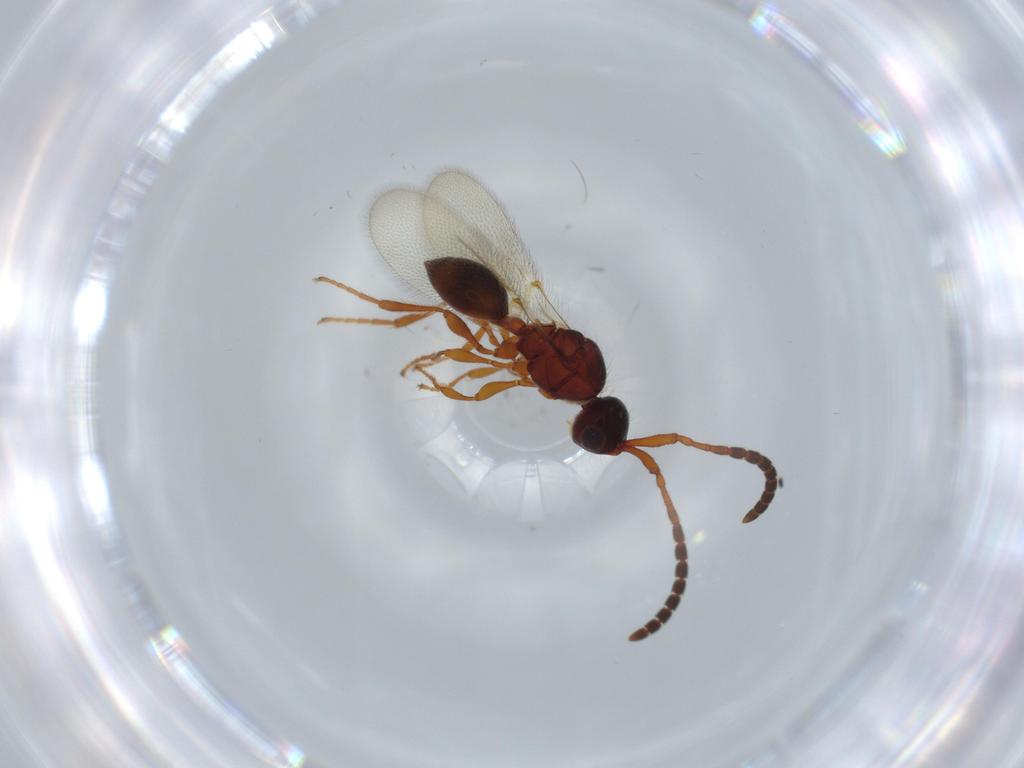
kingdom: Animalia
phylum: Arthropoda
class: Insecta
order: Hymenoptera
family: Diapriidae
